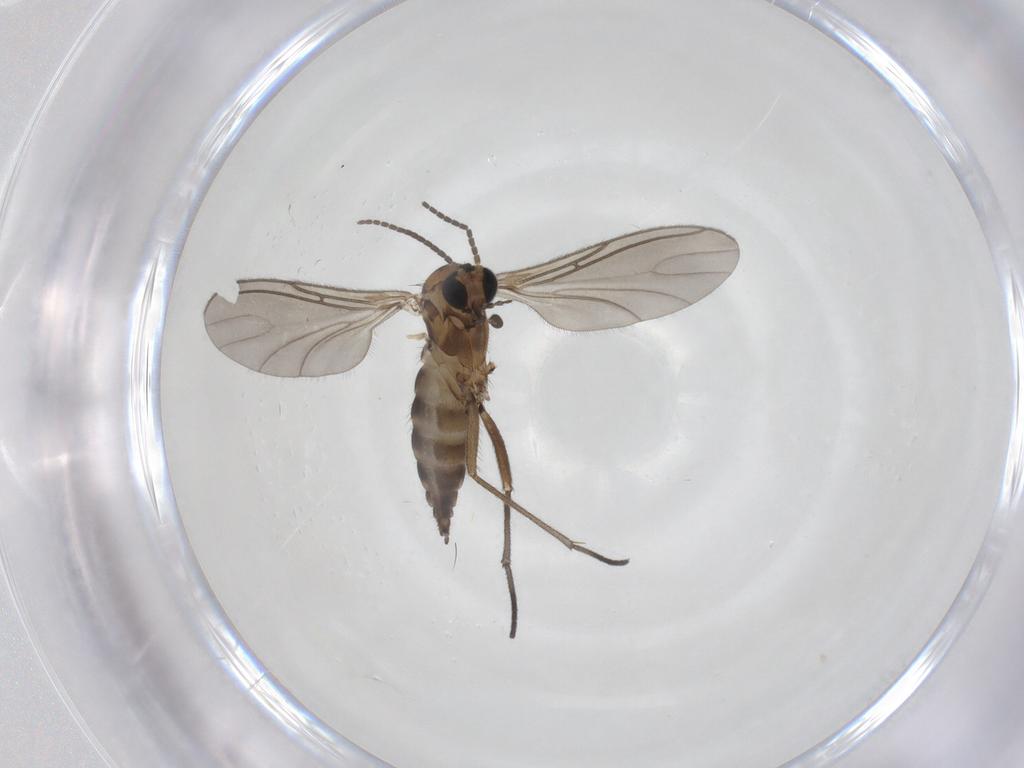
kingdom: Animalia
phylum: Arthropoda
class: Insecta
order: Diptera
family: Sciaridae
